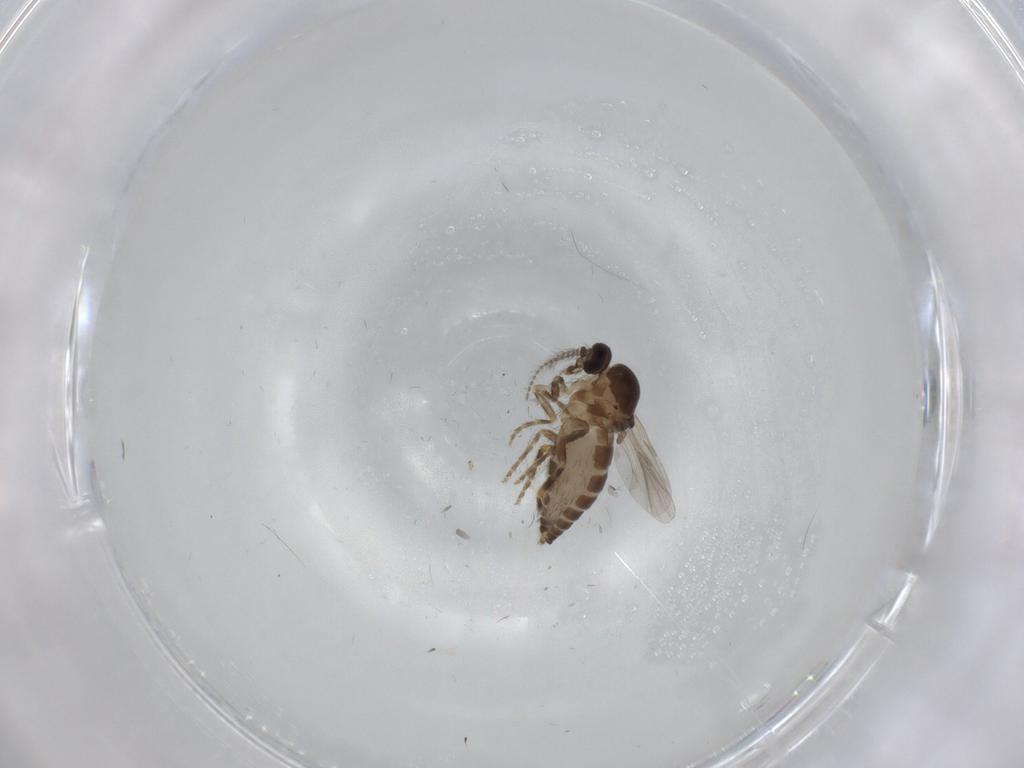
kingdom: Animalia
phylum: Arthropoda
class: Insecta
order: Diptera
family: Ceratopogonidae
